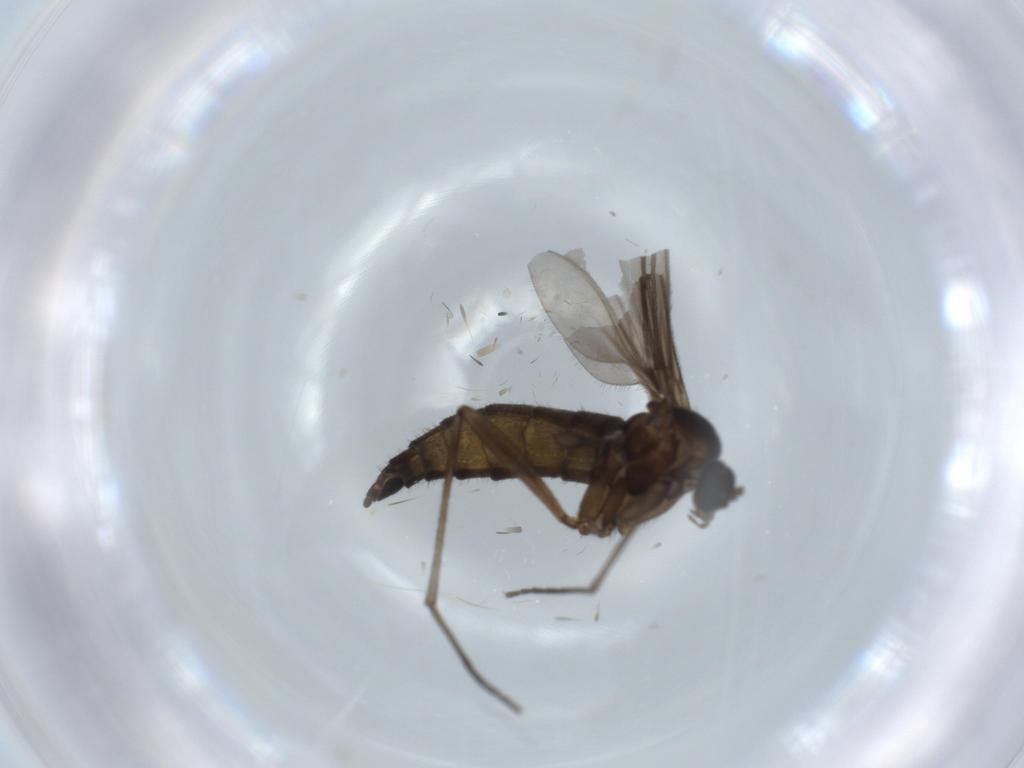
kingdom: Animalia
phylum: Arthropoda
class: Insecta
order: Diptera
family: Sciaridae
